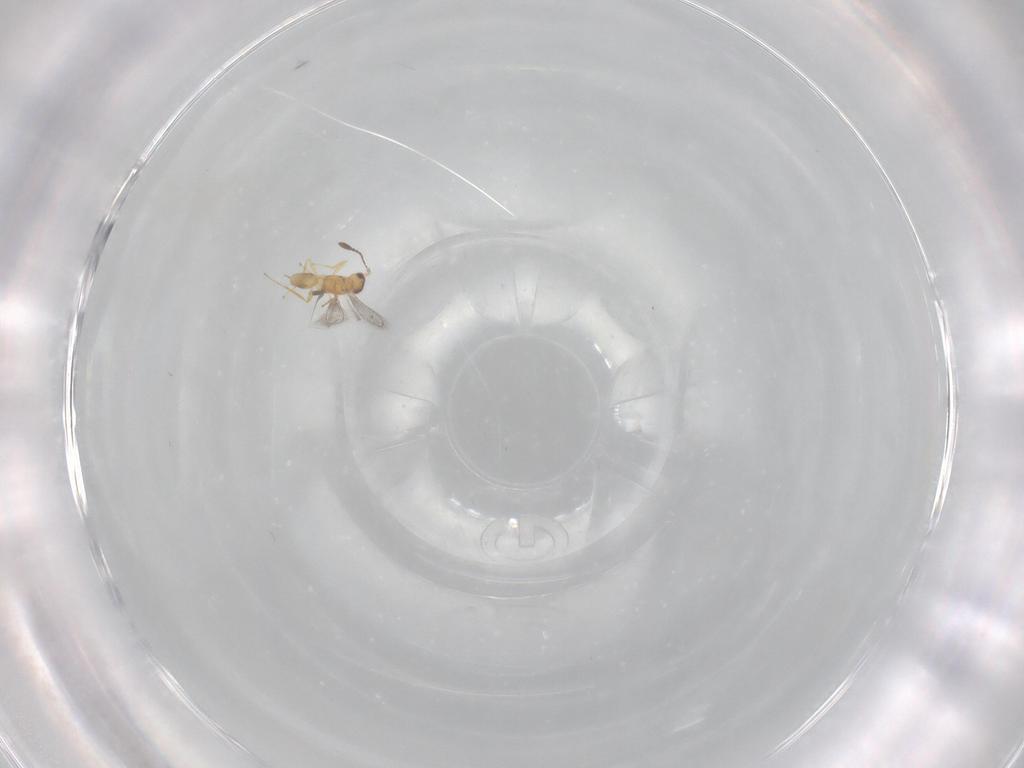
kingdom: Animalia
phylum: Arthropoda
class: Insecta
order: Hymenoptera
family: Mymaridae
